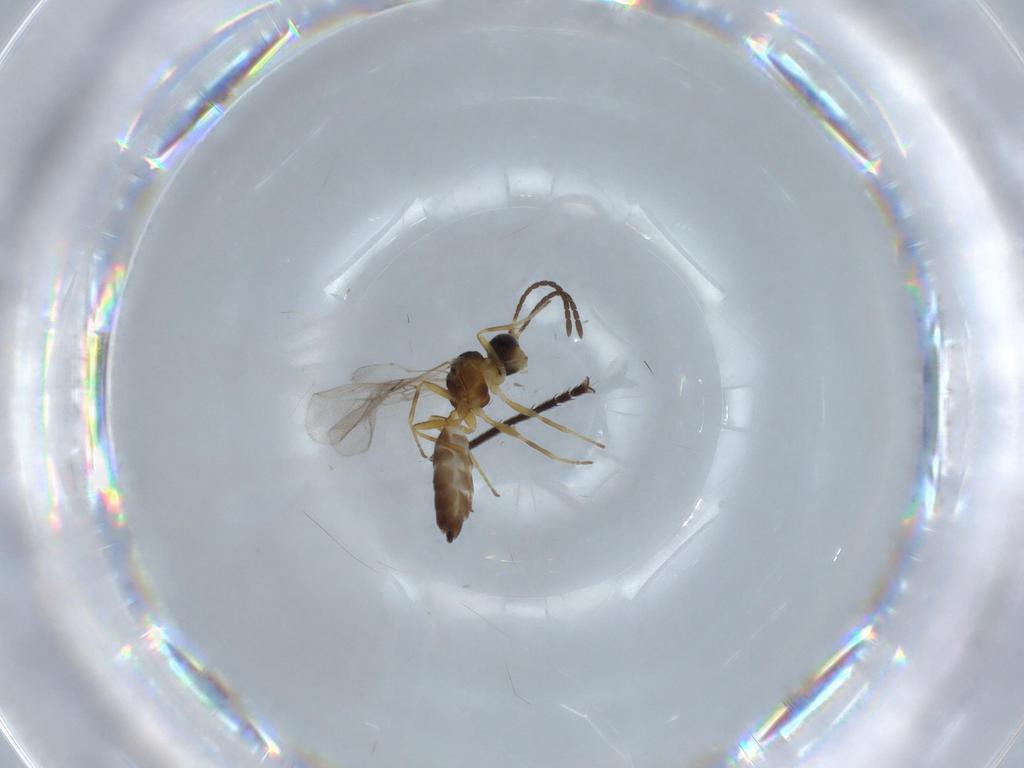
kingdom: Animalia
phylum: Arthropoda
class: Insecta
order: Hymenoptera
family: Braconidae
